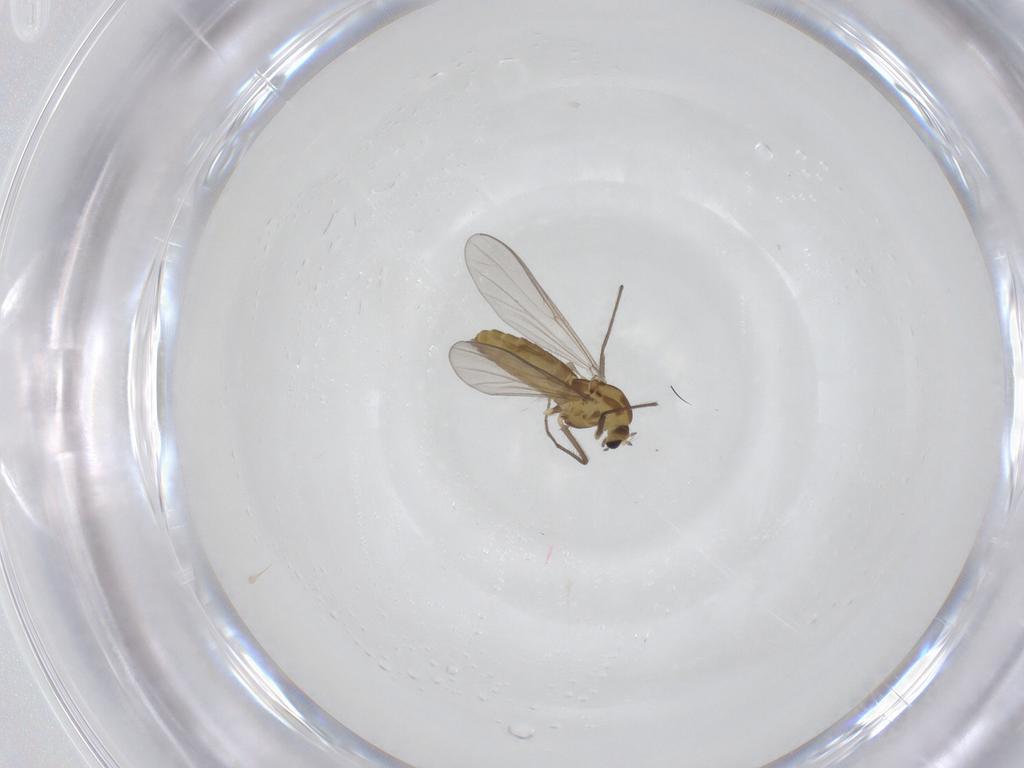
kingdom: Animalia
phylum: Arthropoda
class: Insecta
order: Diptera
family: Chironomidae
